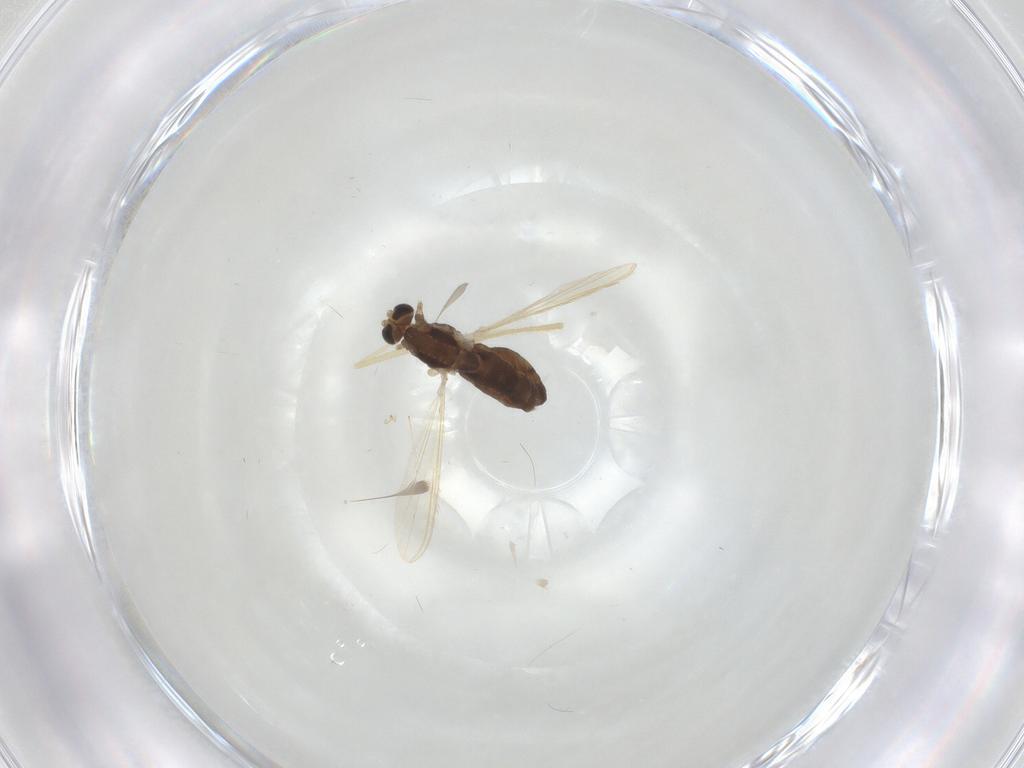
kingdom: Animalia
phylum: Arthropoda
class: Insecta
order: Diptera
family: Chironomidae
